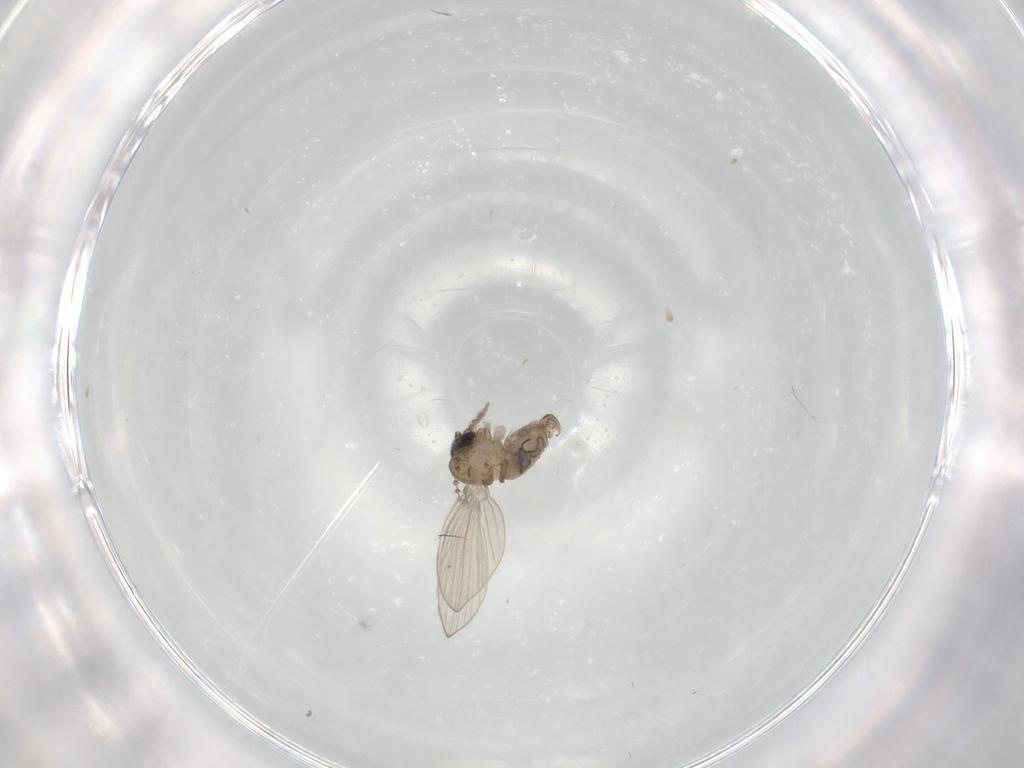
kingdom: Animalia
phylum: Arthropoda
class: Insecta
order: Diptera
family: Psychodidae
